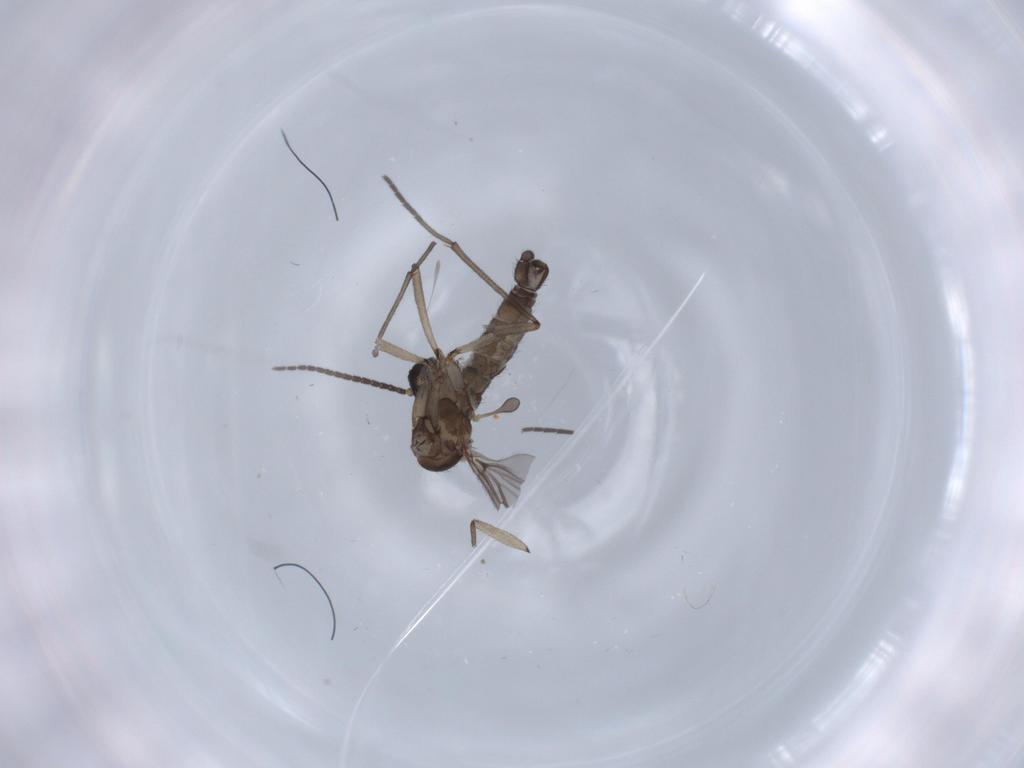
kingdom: Animalia
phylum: Arthropoda
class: Insecta
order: Diptera
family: Sciaridae
